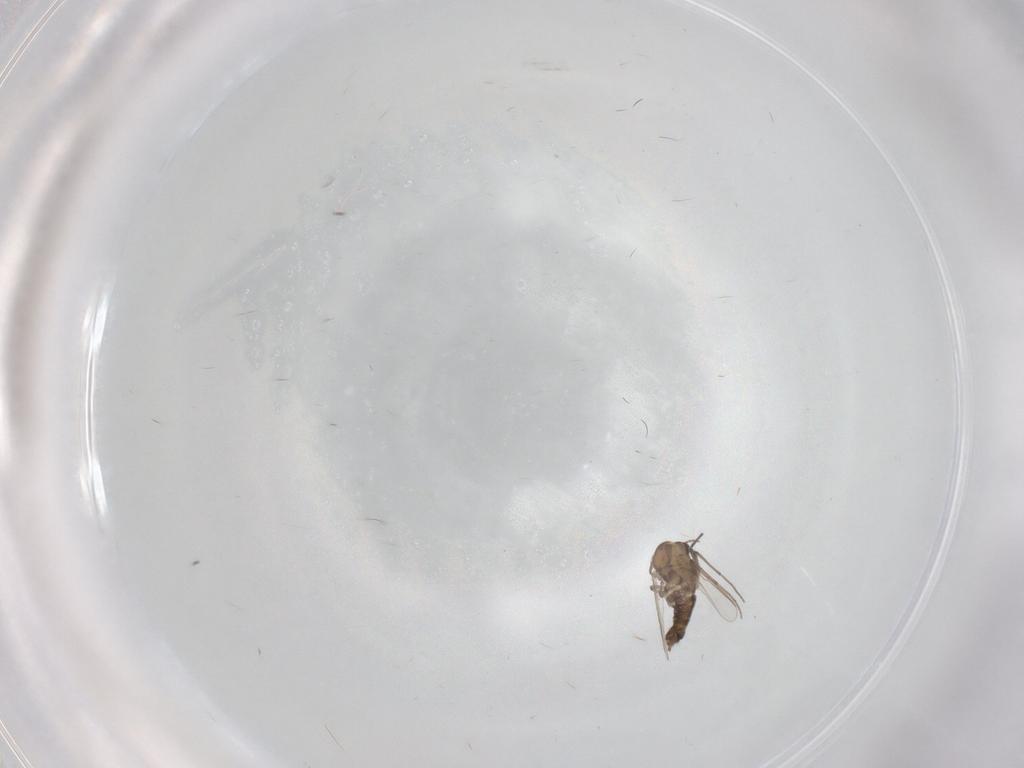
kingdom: Animalia
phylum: Arthropoda
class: Insecta
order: Diptera
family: Chironomidae
